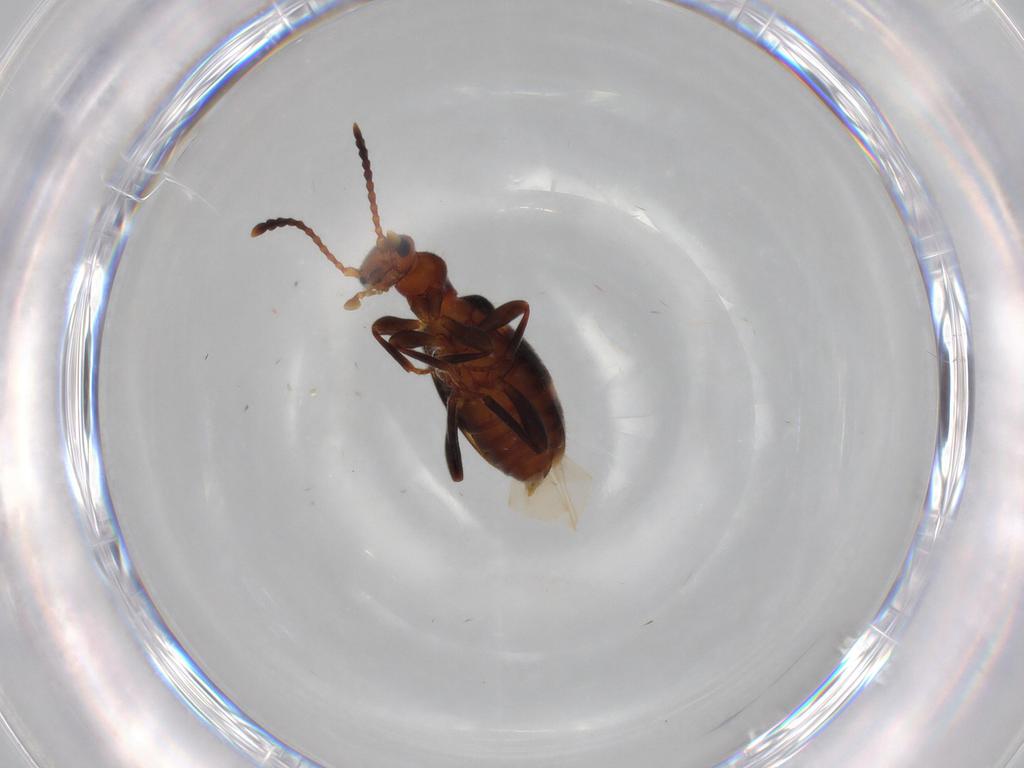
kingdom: Animalia
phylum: Arthropoda
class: Insecta
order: Coleoptera
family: Anthicidae
